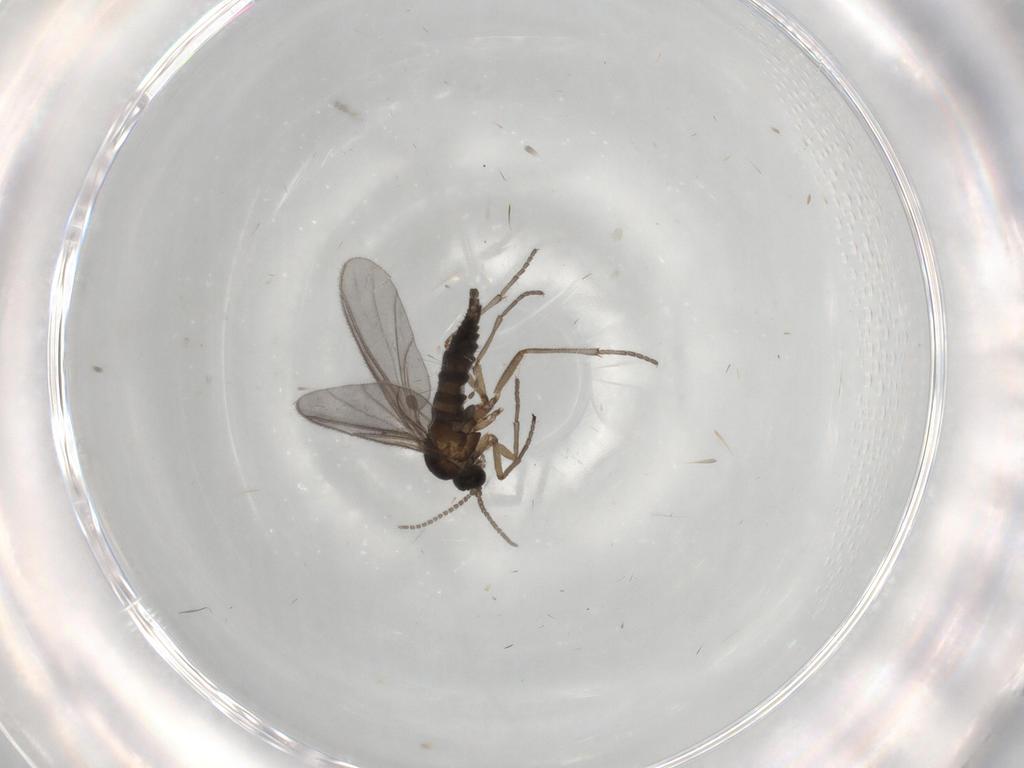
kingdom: Animalia
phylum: Arthropoda
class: Insecta
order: Diptera
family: Sciaridae
